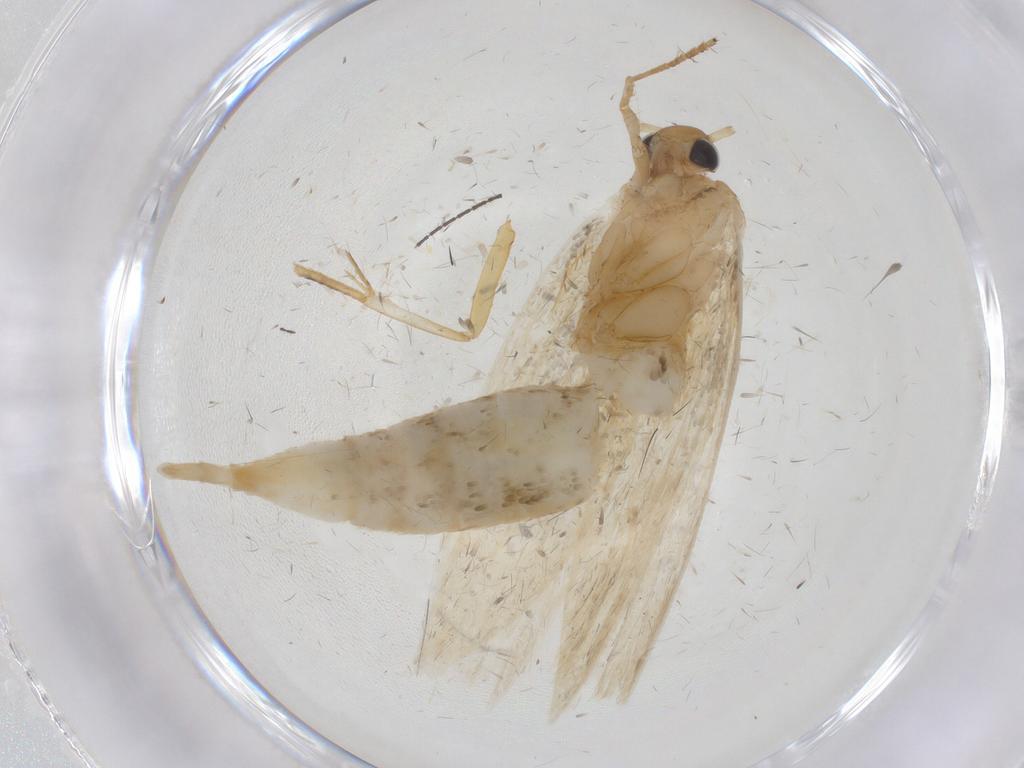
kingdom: Animalia
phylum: Arthropoda
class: Insecta
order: Lepidoptera
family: Oecophoridae
